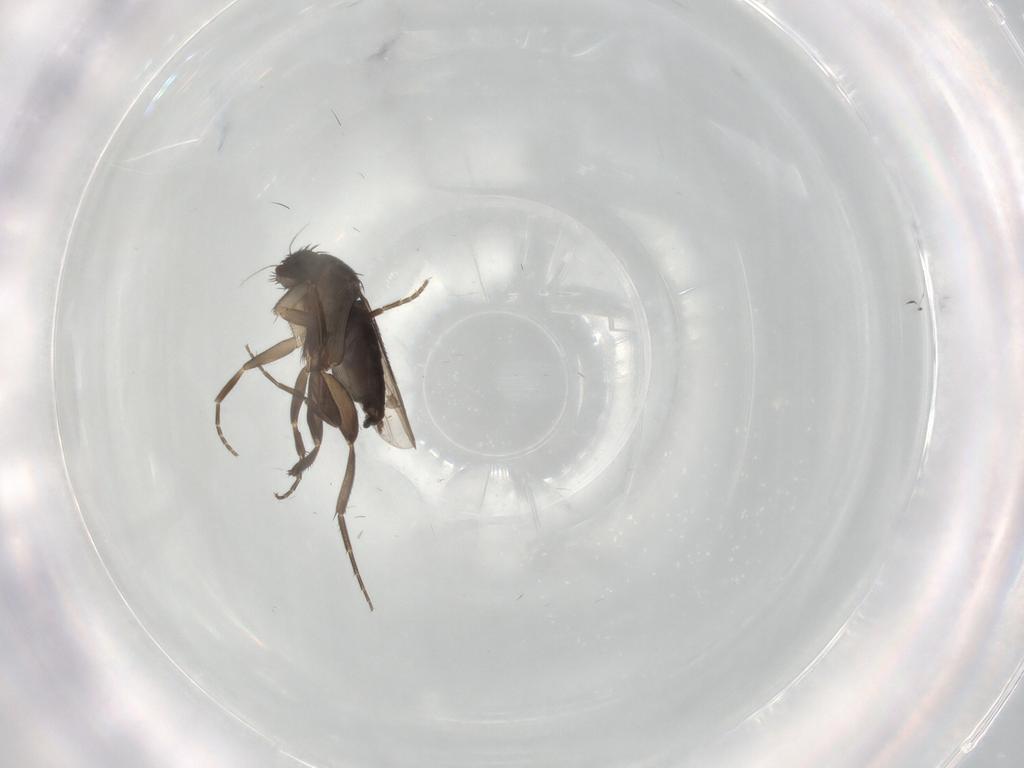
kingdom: Animalia
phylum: Arthropoda
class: Insecta
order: Diptera
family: Phoridae
